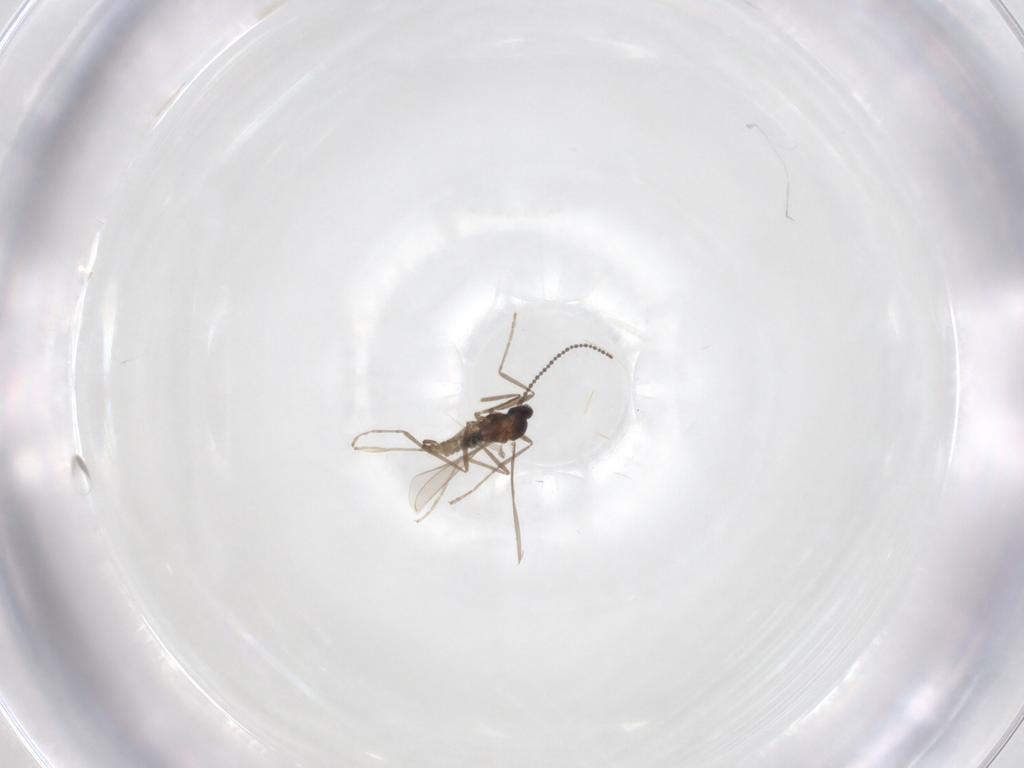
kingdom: Animalia
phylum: Arthropoda
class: Insecta
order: Diptera
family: Cecidomyiidae
